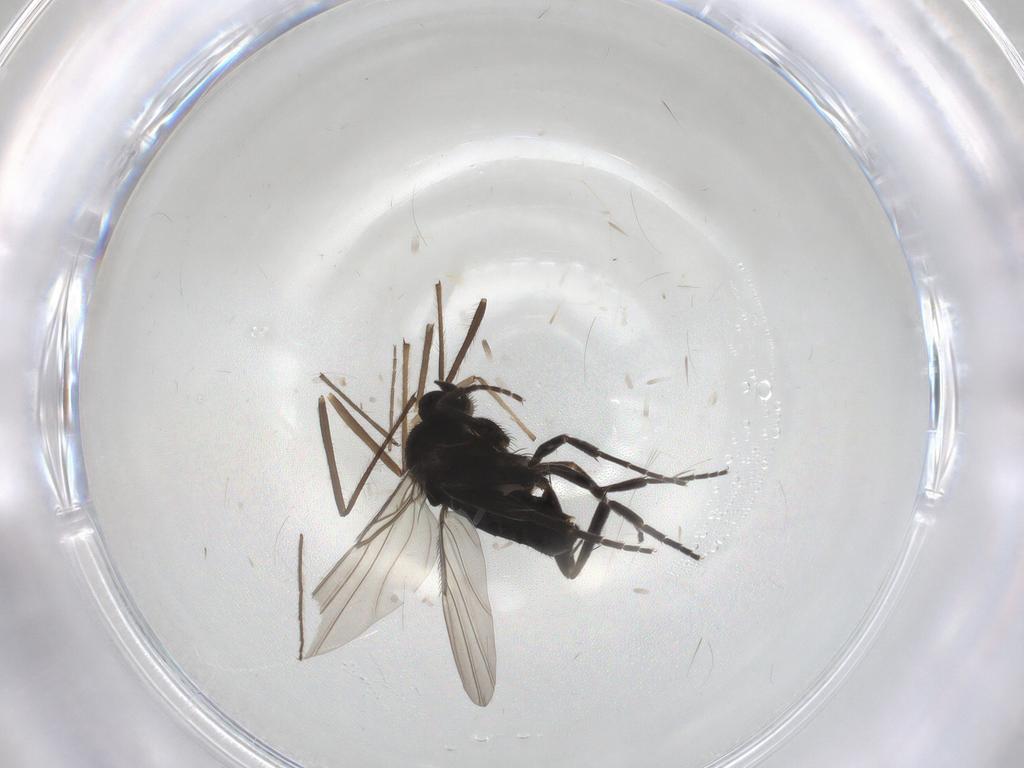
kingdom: Animalia
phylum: Arthropoda
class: Insecta
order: Diptera
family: Chironomidae
